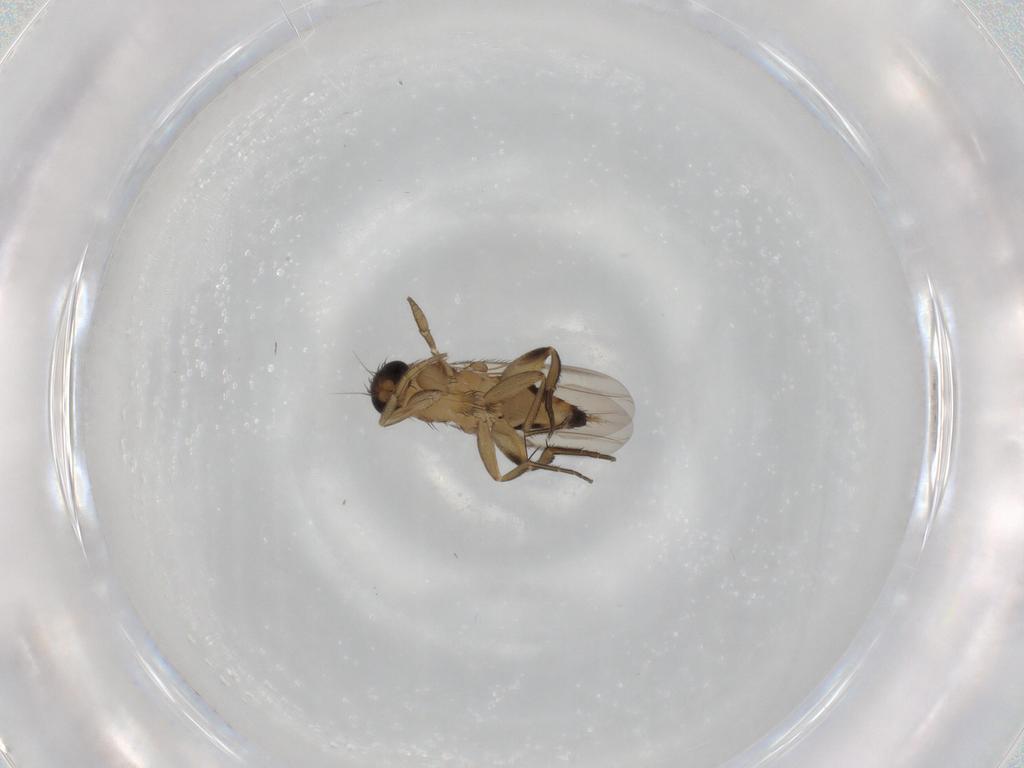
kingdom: Animalia
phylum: Arthropoda
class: Insecta
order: Diptera
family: Phoridae
